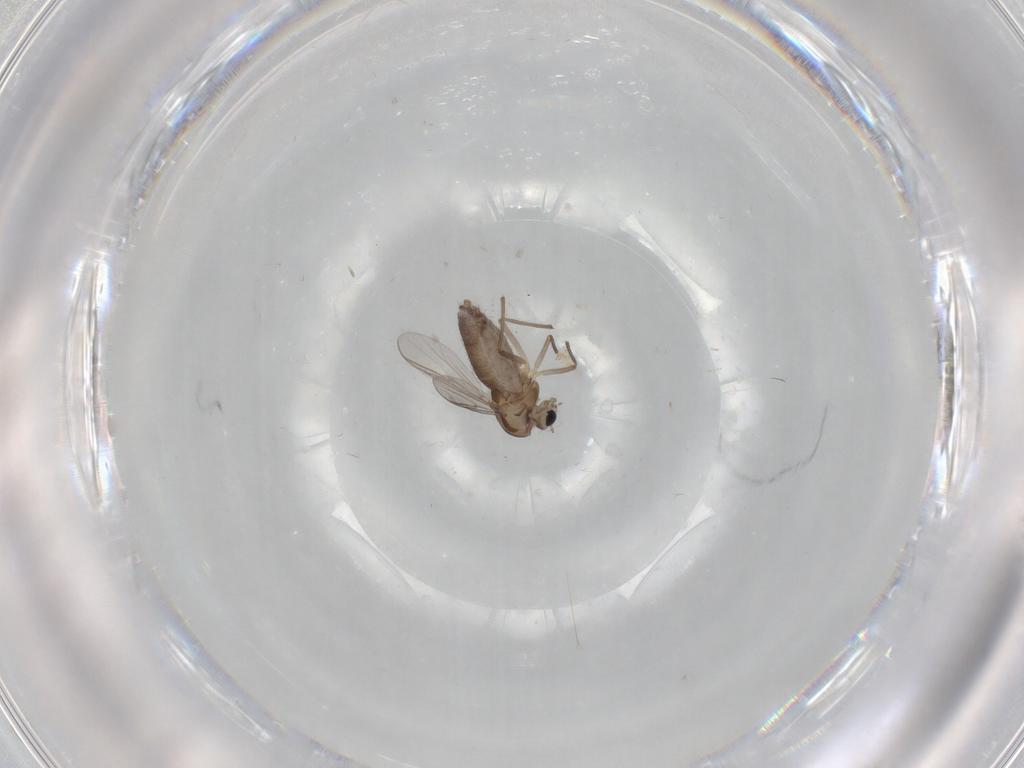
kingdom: Animalia
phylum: Arthropoda
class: Insecta
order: Diptera
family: Chironomidae
